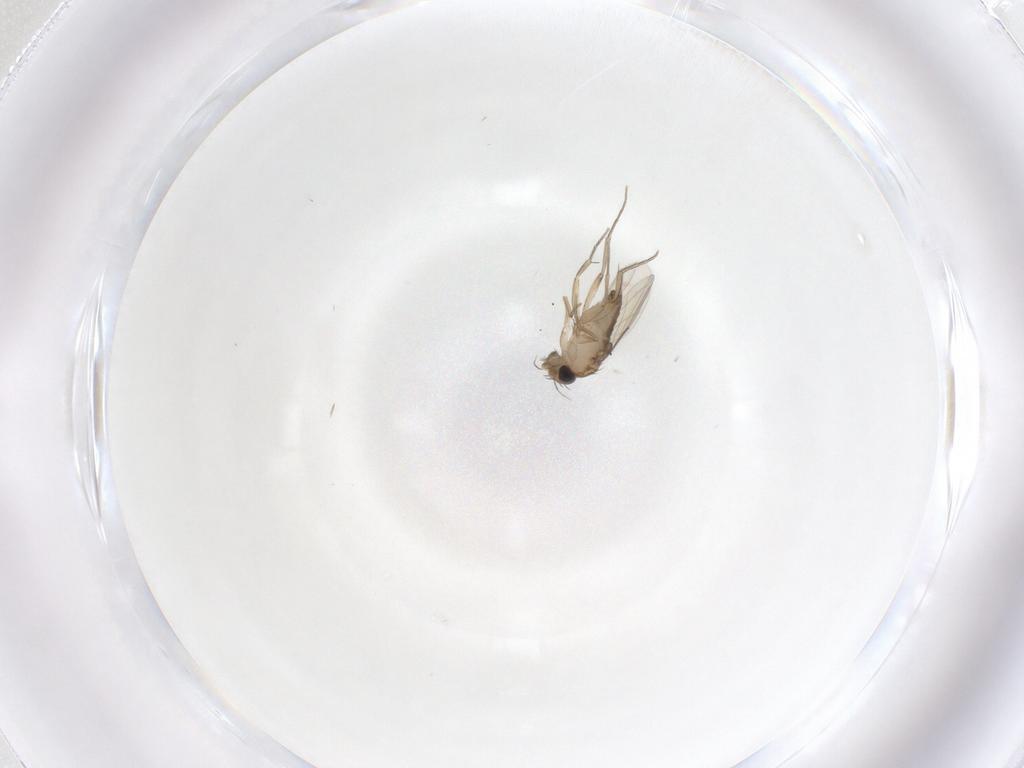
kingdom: Animalia
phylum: Arthropoda
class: Insecta
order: Diptera
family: Phoridae
